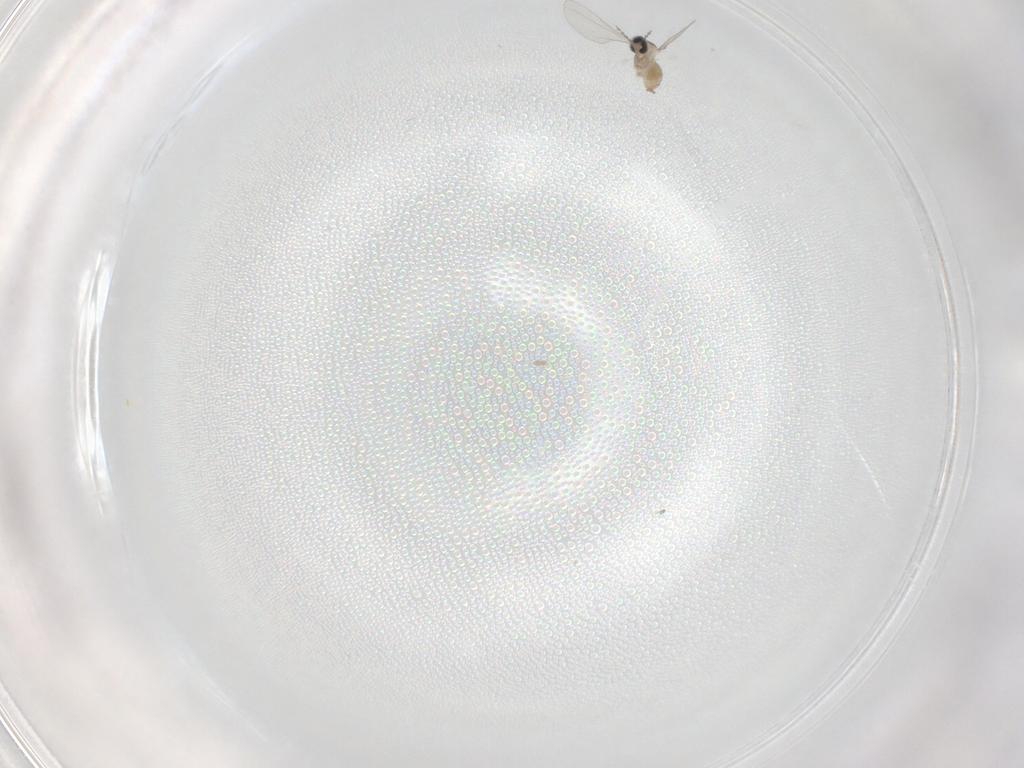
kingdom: Animalia
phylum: Arthropoda
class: Insecta
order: Diptera
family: Cecidomyiidae
